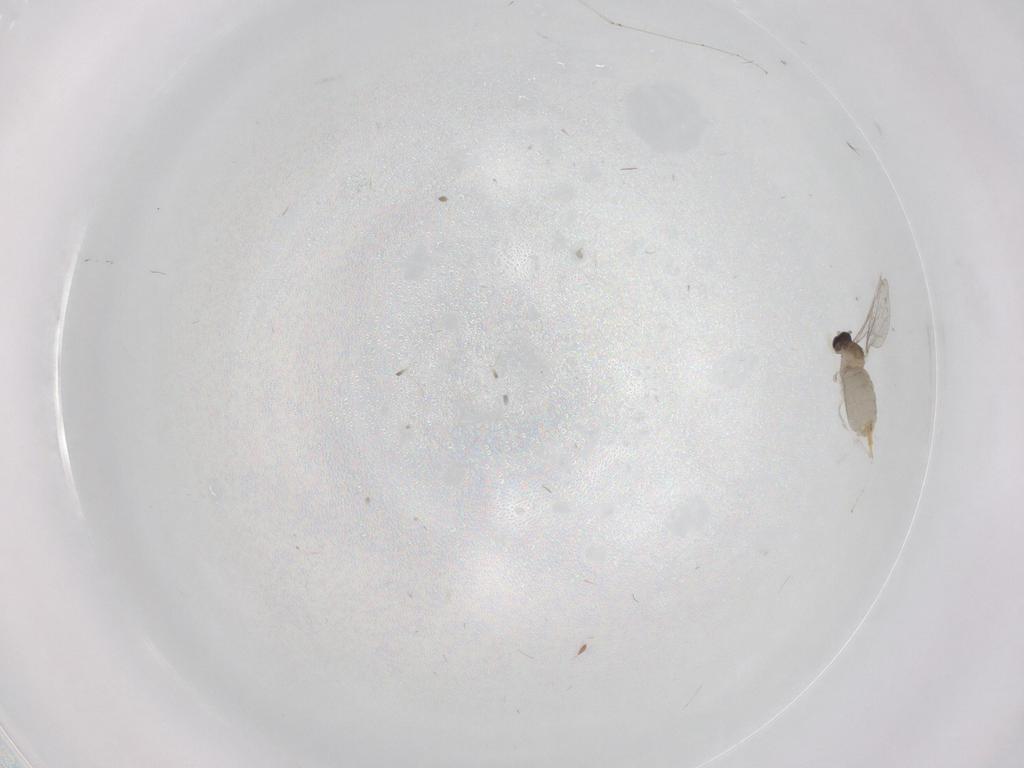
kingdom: Animalia
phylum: Arthropoda
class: Insecta
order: Diptera
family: Cecidomyiidae
